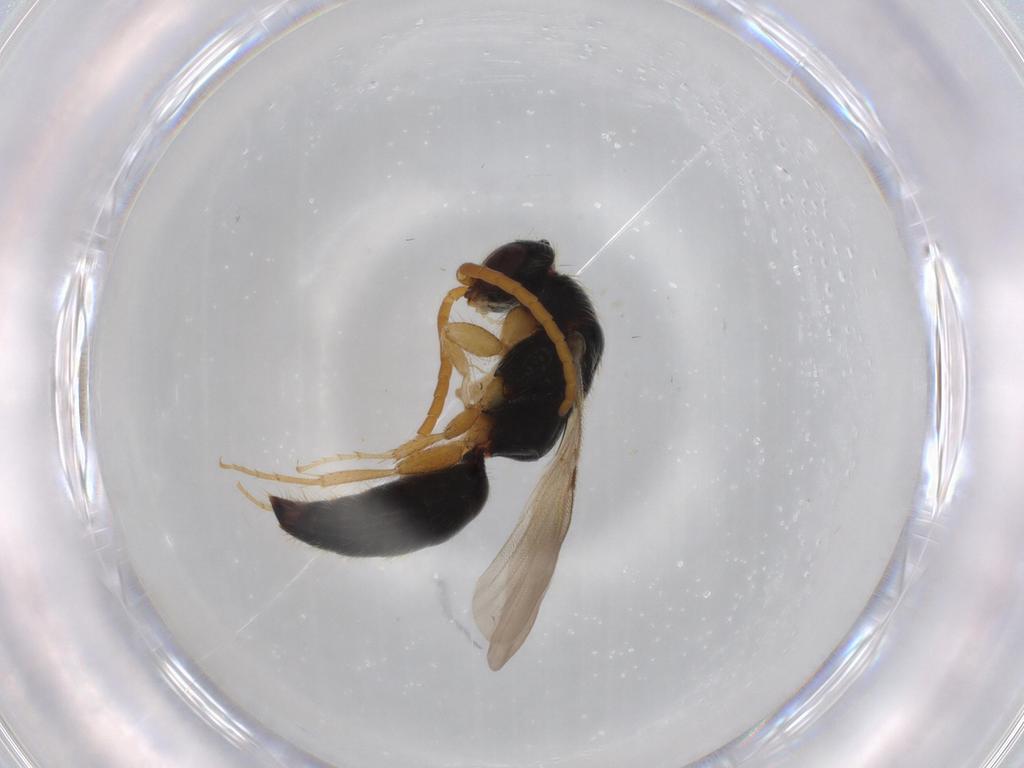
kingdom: Animalia
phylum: Arthropoda
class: Insecta
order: Hymenoptera
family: Bethylidae
